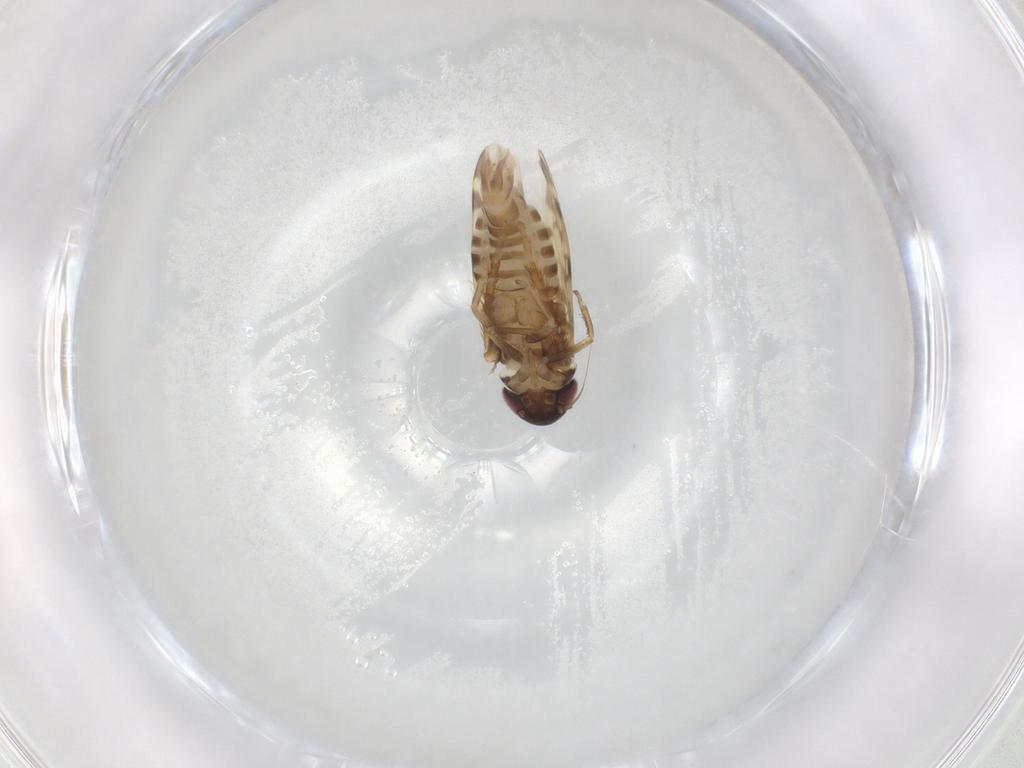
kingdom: Animalia
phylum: Arthropoda
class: Insecta
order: Hemiptera
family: Cicadellidae
